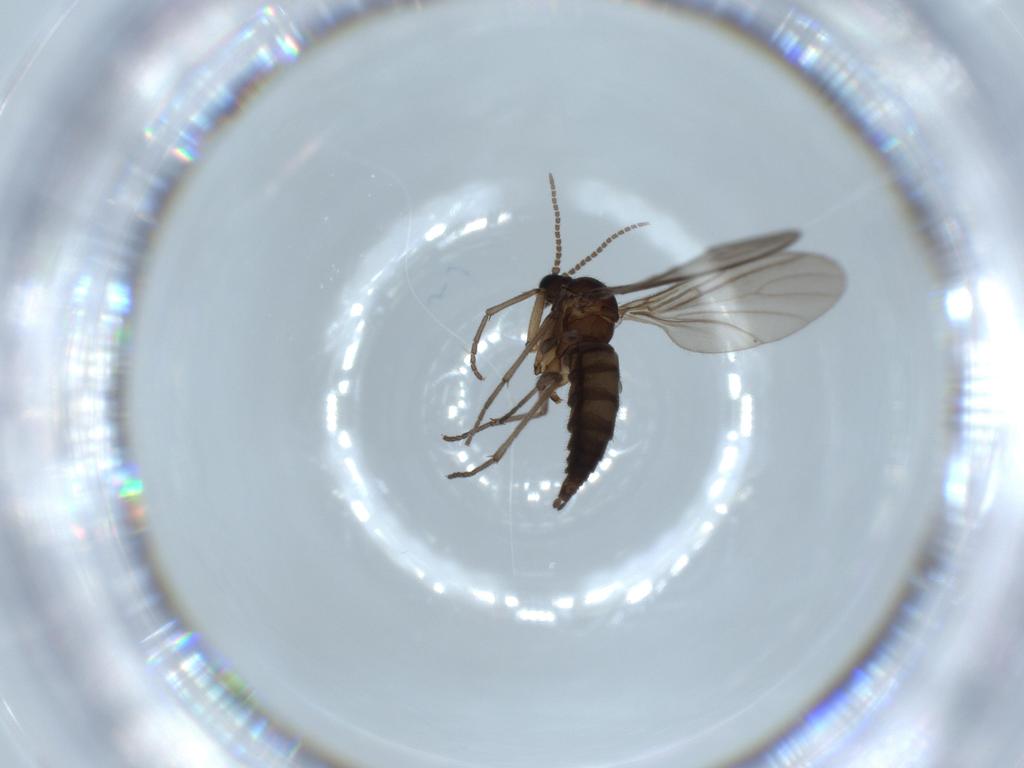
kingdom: Animalia
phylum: Arthropoda
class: Insecta
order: Diptera
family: Sciaridae
